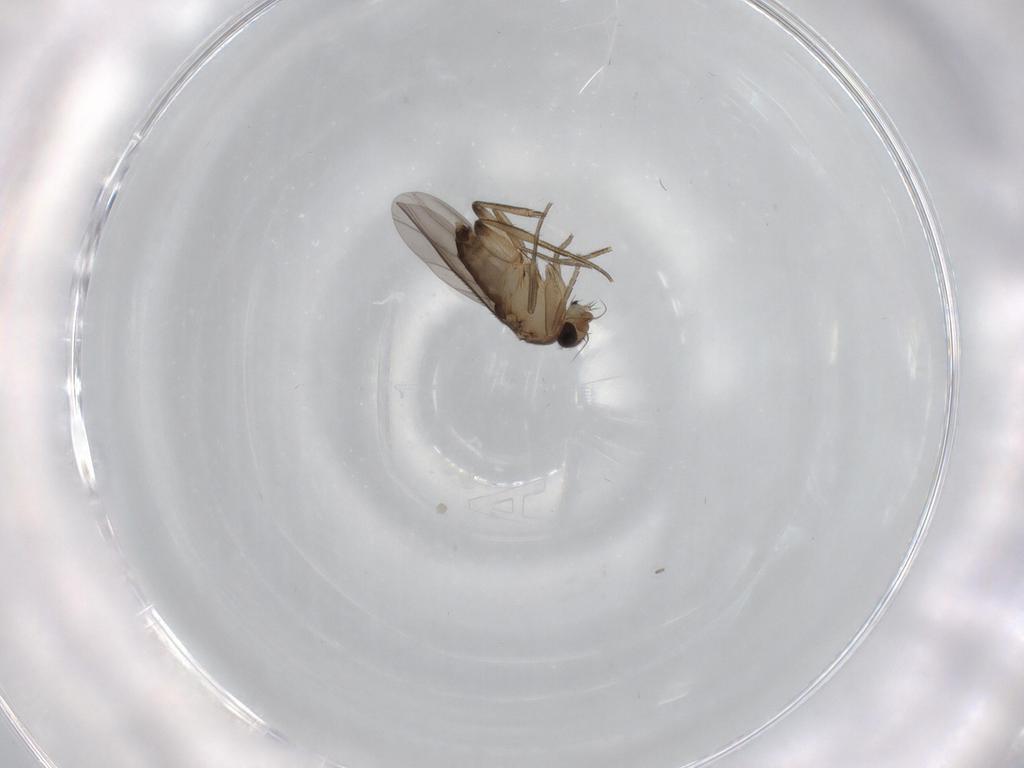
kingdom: Animalia
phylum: Arthropoda
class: Insecta
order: Diptera
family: Phoridae
